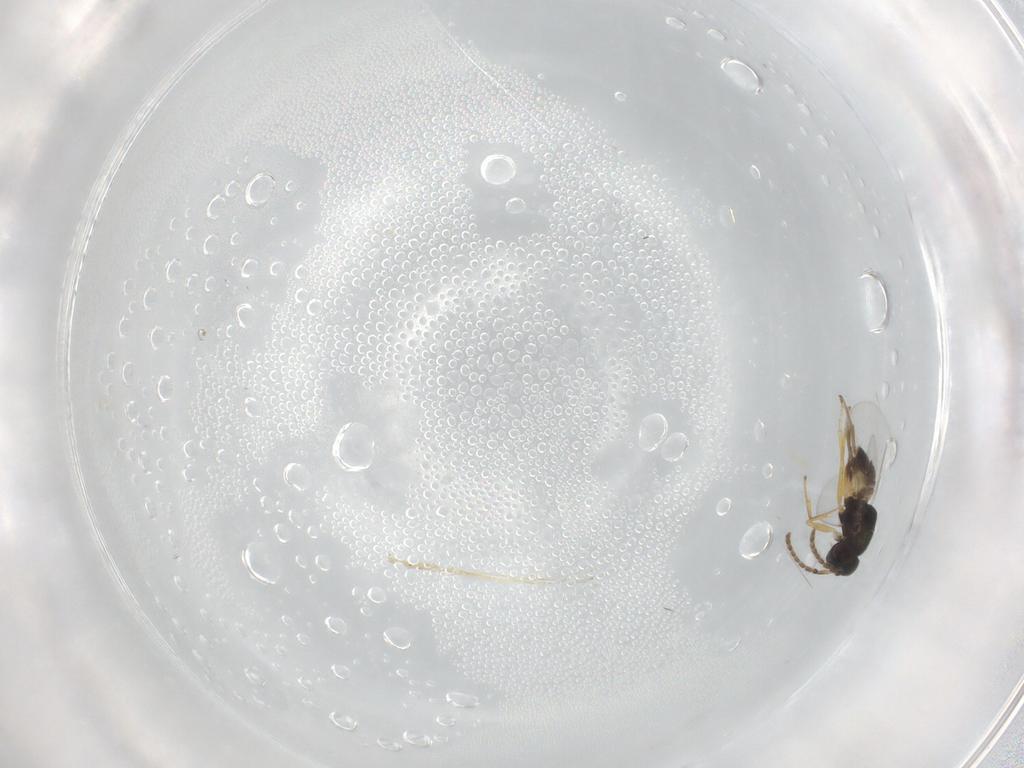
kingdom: Animalia
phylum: Arthropoda
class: Insecta
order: Hymenoptera
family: Formicidae
